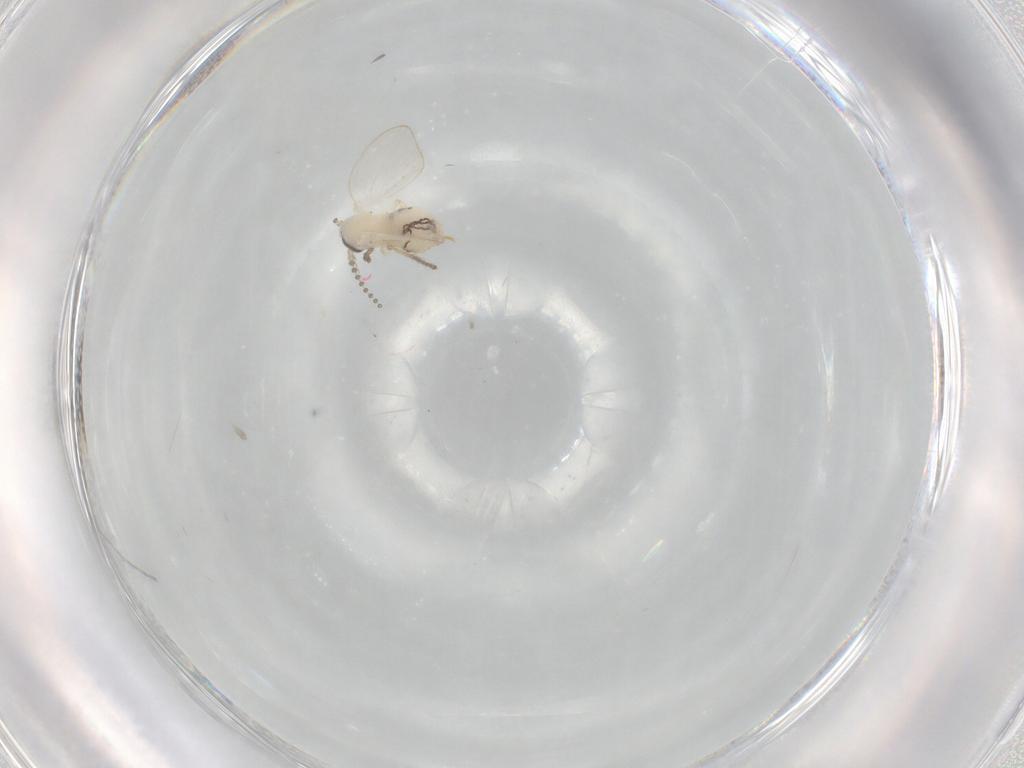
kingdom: Animalia
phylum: Arthropoda
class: Insecta
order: Diptera
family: Psychodidae
